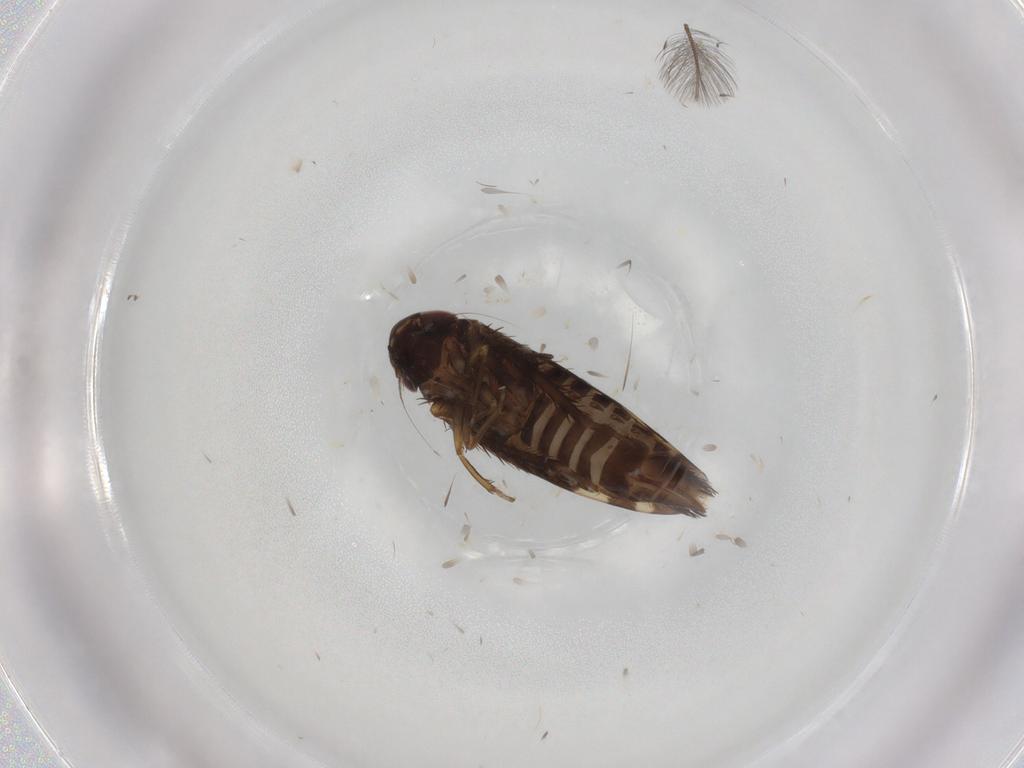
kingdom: Animalia
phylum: Arthropoda
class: Insecta
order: Hemiptera
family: Cicadellidae
